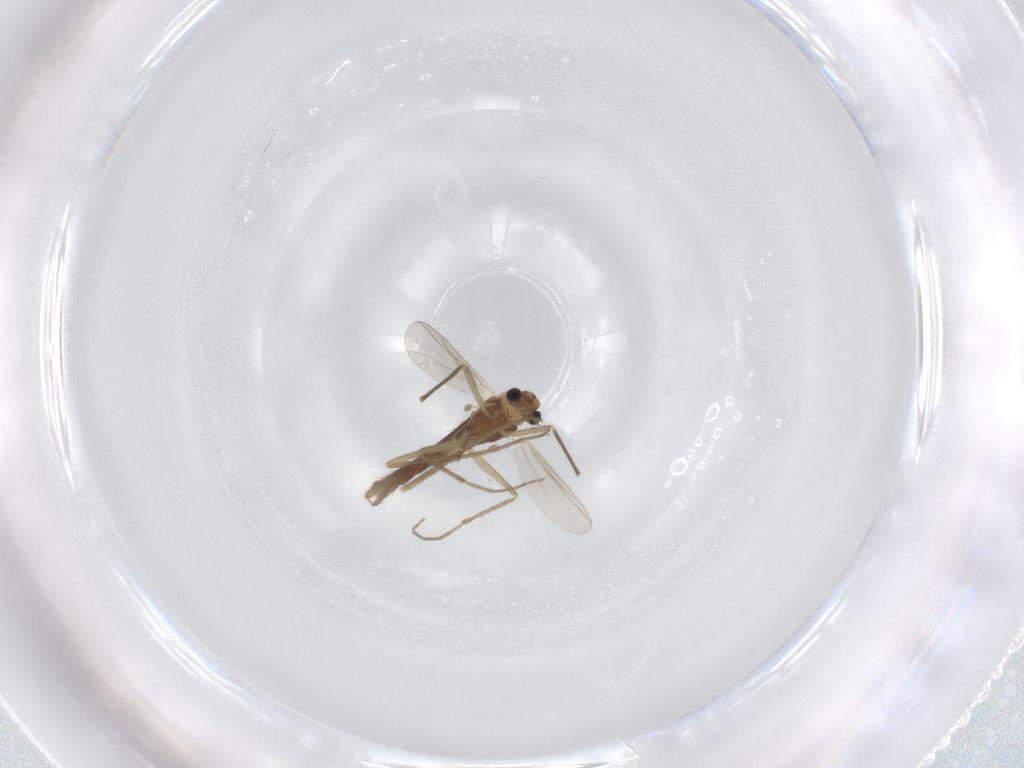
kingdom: Animalia
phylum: Arthropoda
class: Insecta
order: Diptera
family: Chironomidae
